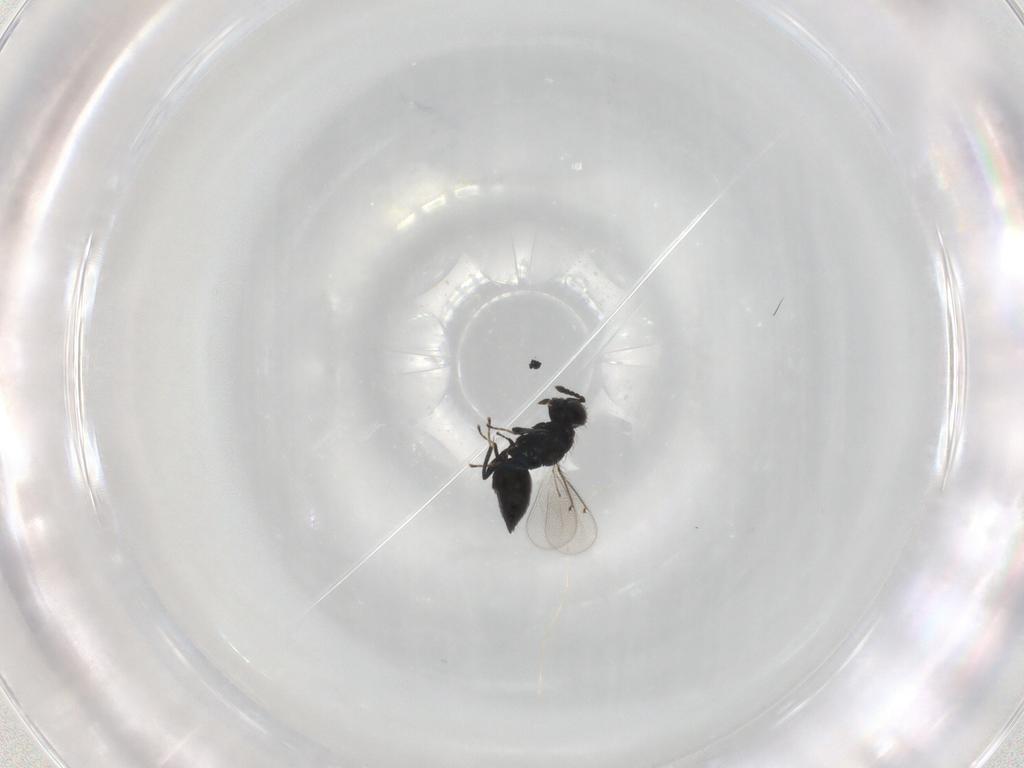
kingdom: Animalia
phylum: Arthropoda
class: Insecta
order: Hymenoptera
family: Eulophidae
